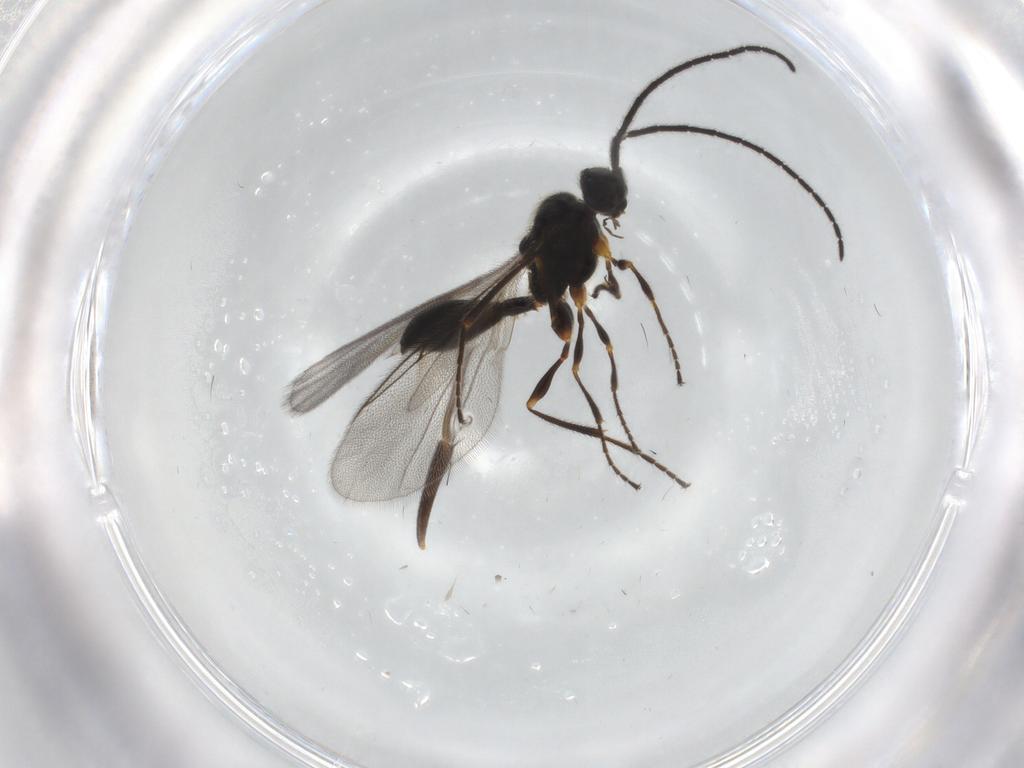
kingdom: Animalia
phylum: Arthropoda
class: Insecta
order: Hymenoptera
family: Diapriidae
